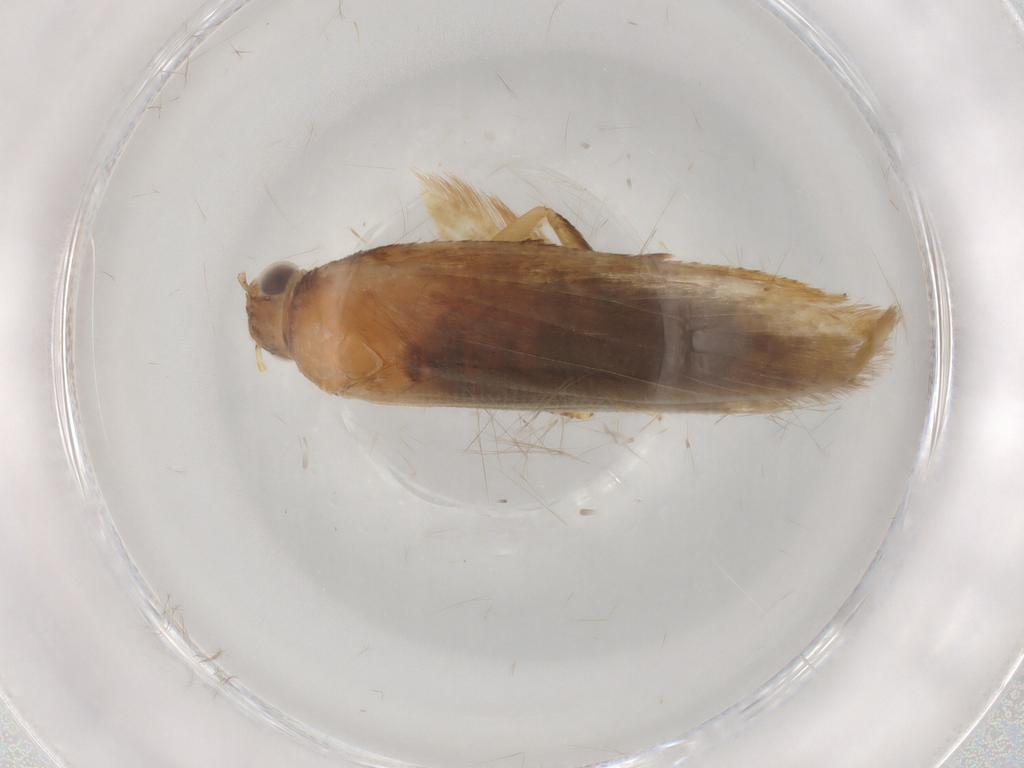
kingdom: Animalia
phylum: Arthropoda
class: Insecta
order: Lepidoptera
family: Gelechiidae
